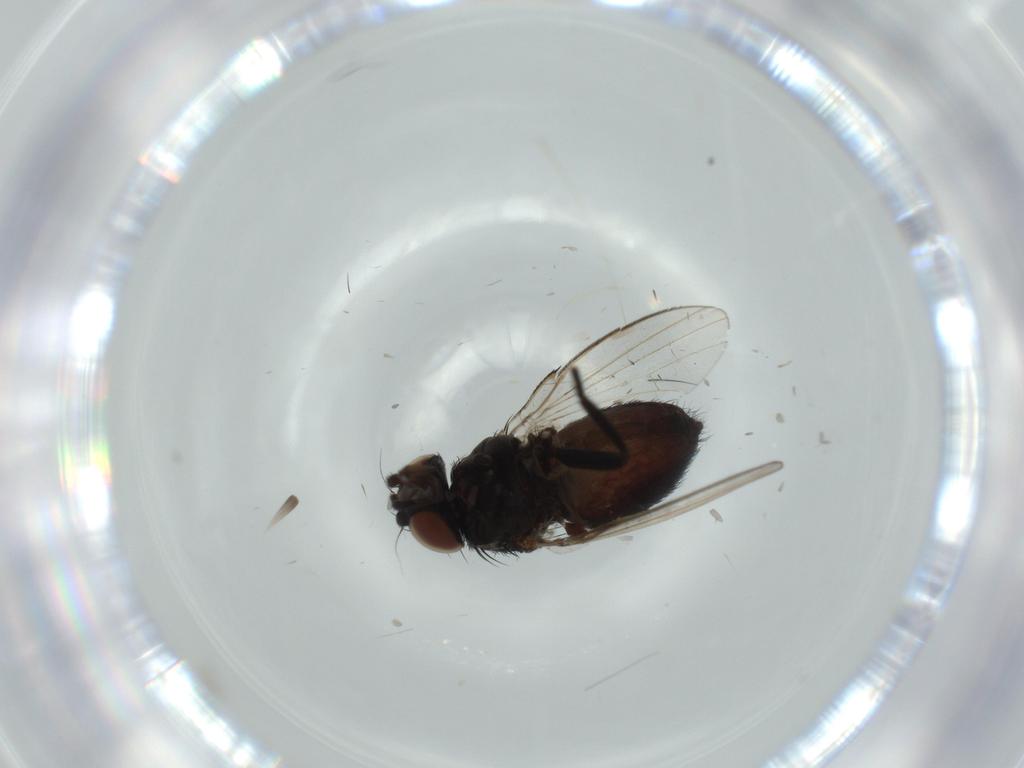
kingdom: Animalia
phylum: Arthropoda
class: Insecta
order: Diptera
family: Milichiidae
